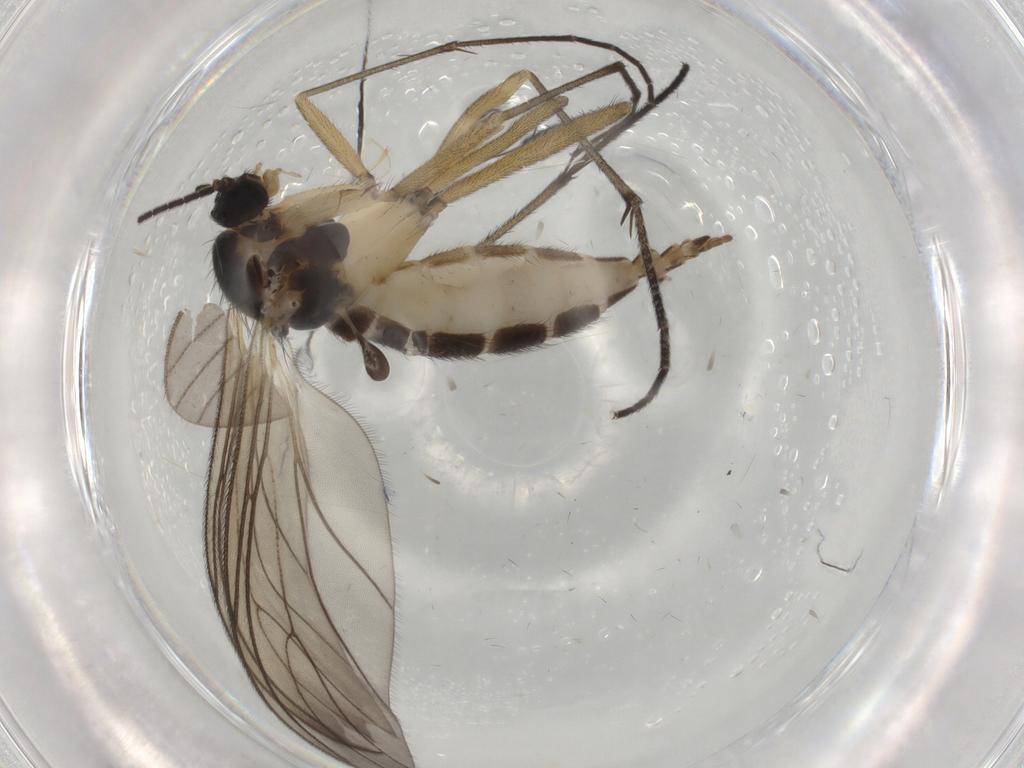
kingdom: Animalia
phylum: Arthropoda
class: Insecta
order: Diptera
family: Sciaridae
